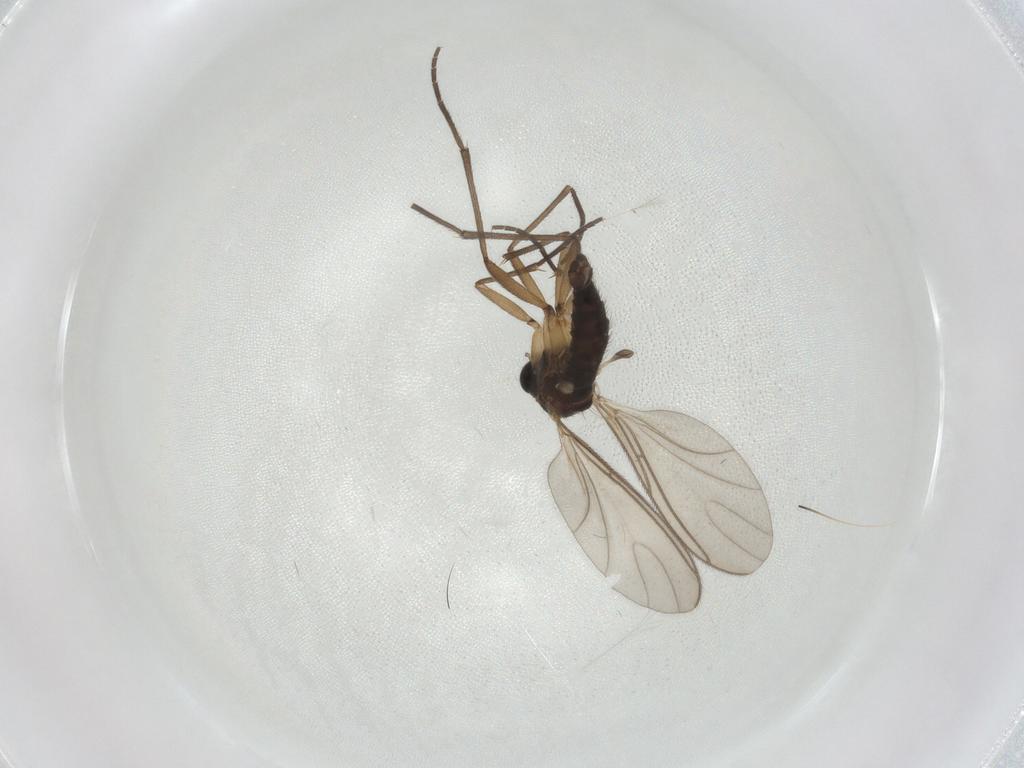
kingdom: Animalia
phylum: Arthropoda
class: Insecta
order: Diptera
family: Sciaridae
